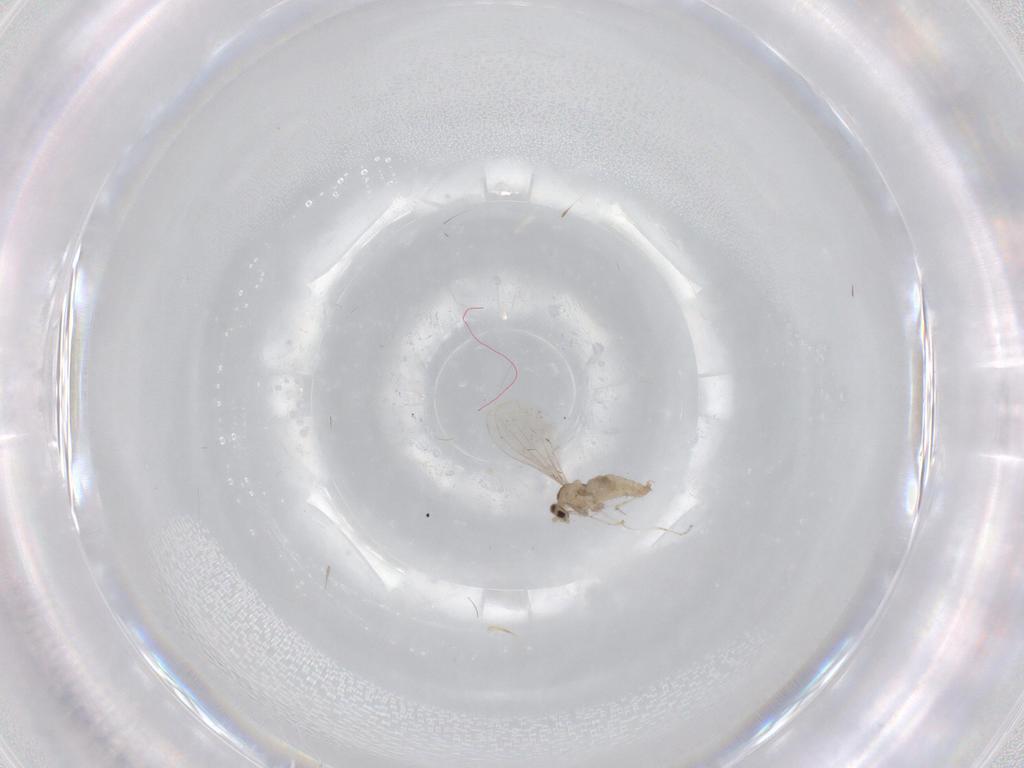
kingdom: Animalia
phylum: Arthropoda
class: Insecta
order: Diptera
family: Cecidomyiidae
